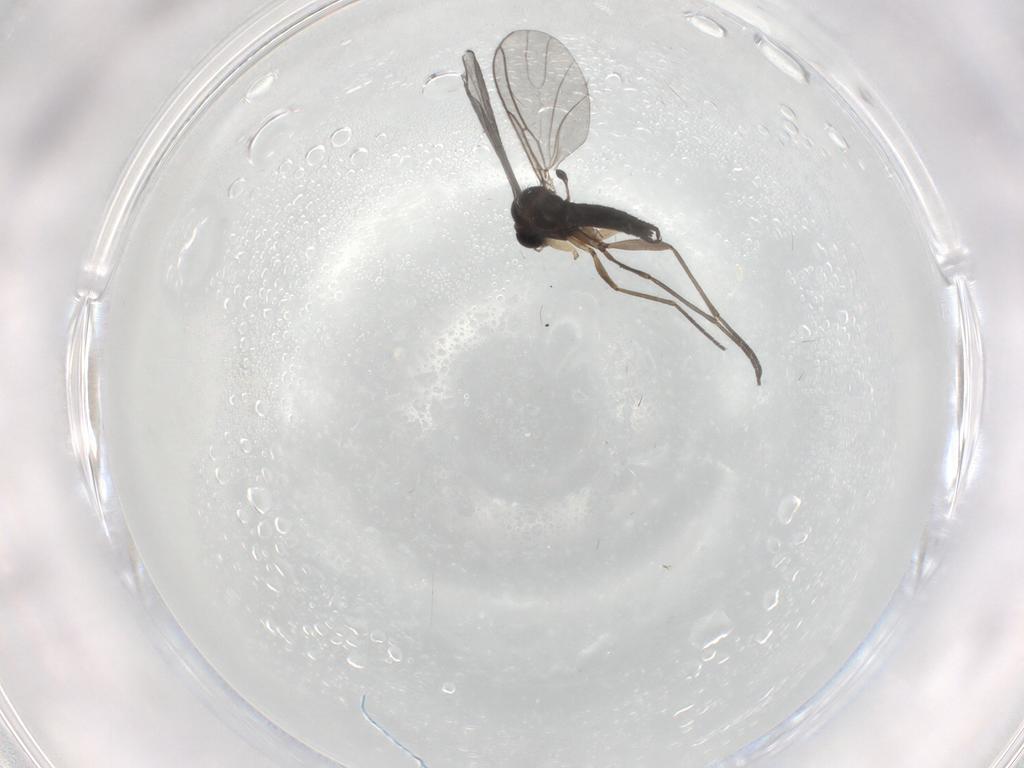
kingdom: Animalia
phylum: Arthropoda
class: Insecta
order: Diptera
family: Sciaridae
